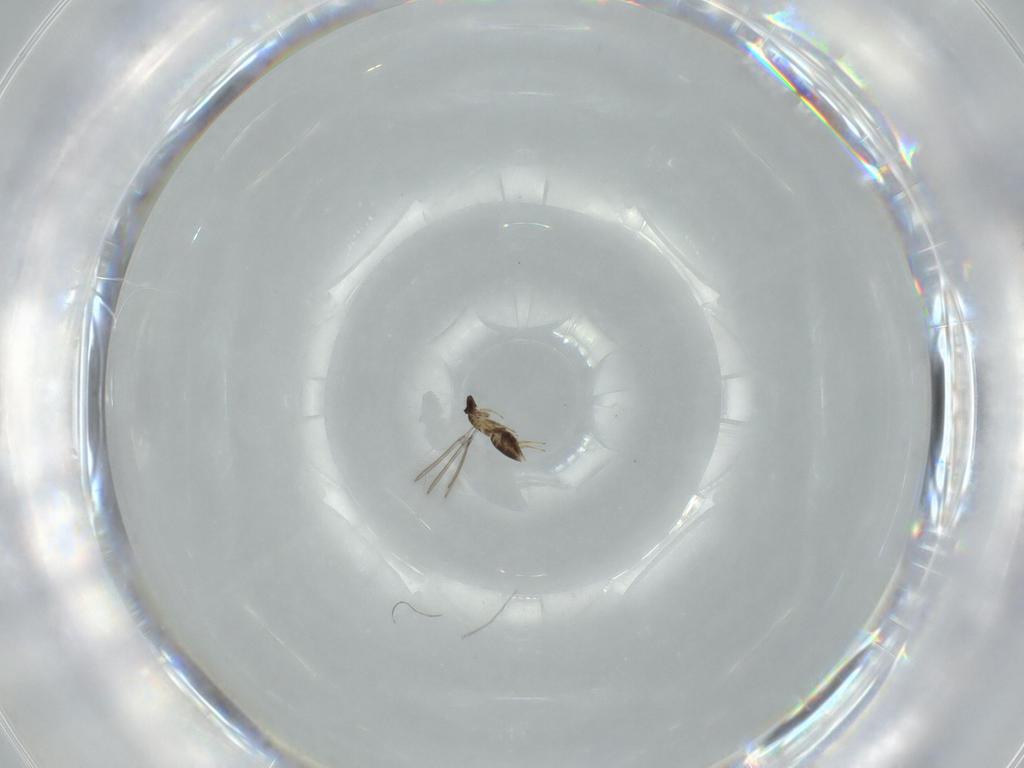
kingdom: Animalia
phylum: Arthropoda
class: Insecta
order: Hymenoptera
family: Mymaridae
